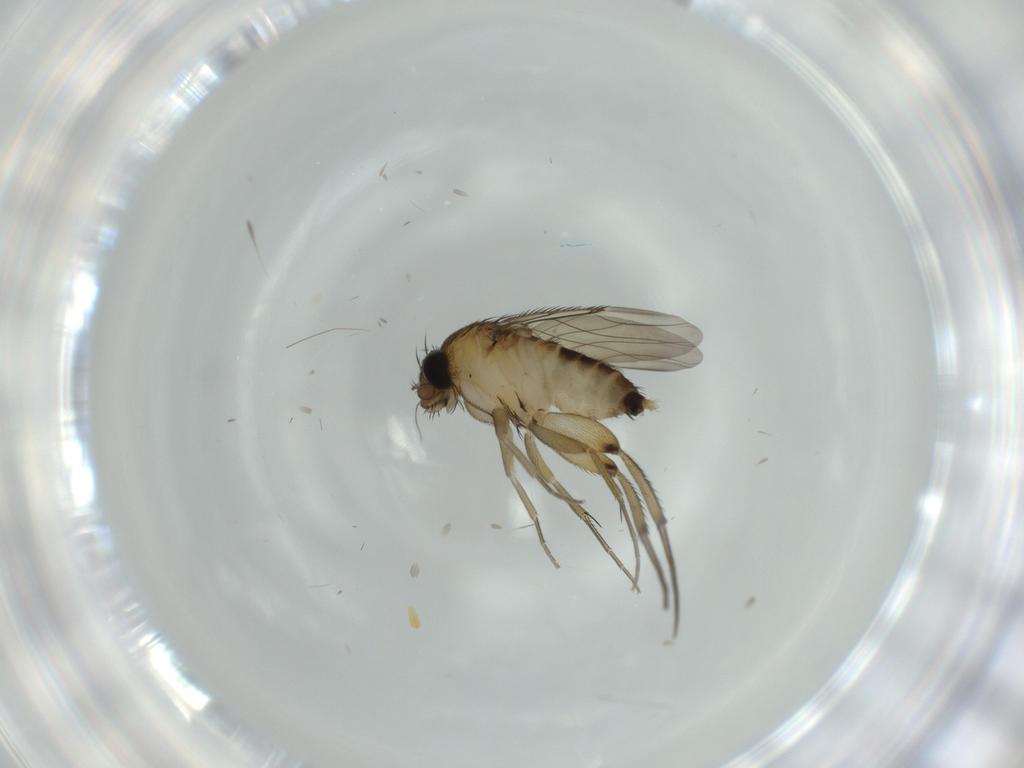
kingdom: Animalia
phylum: Arthropoda
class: Insecta
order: Diptera
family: Phoridae
